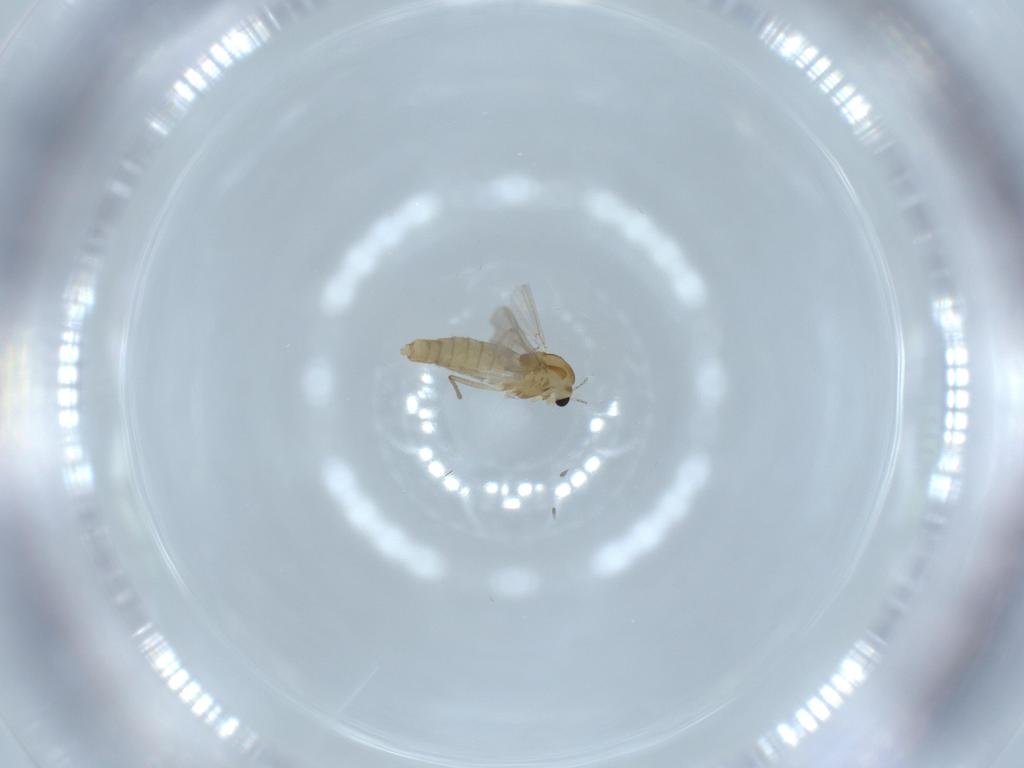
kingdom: Animalia
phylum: Arthropoda
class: Insecta
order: Diptera
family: Chironomidae
